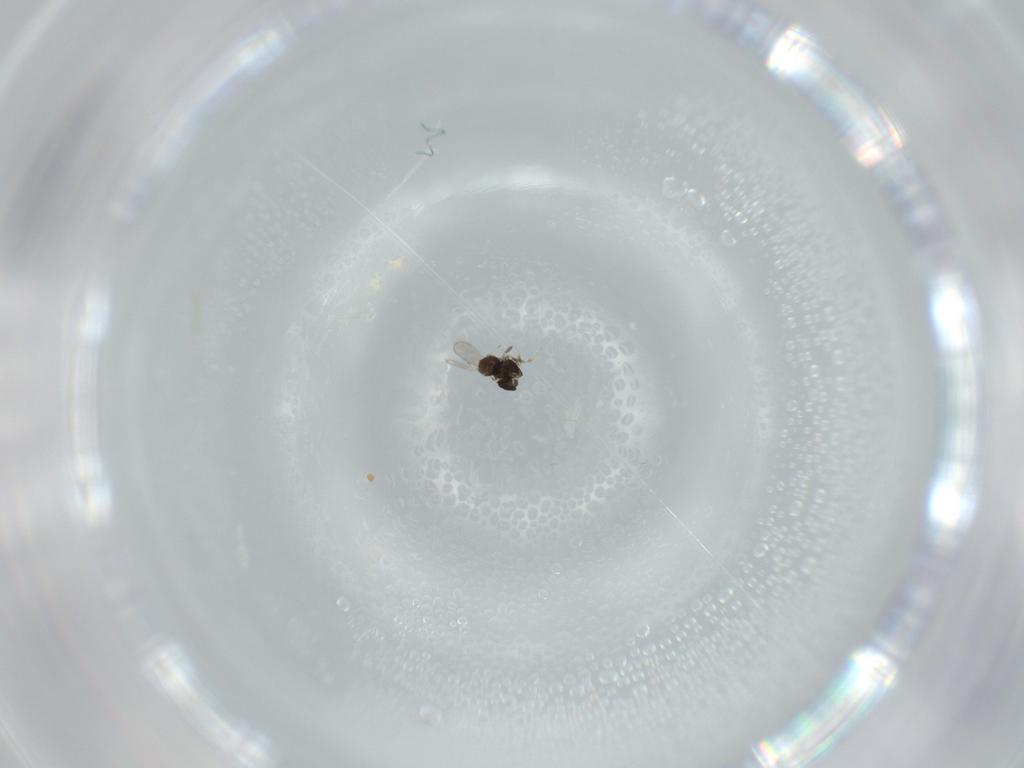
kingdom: Animalia
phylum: Arthropoda
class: Insecta
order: Hymenoptera
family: Scelionidae
